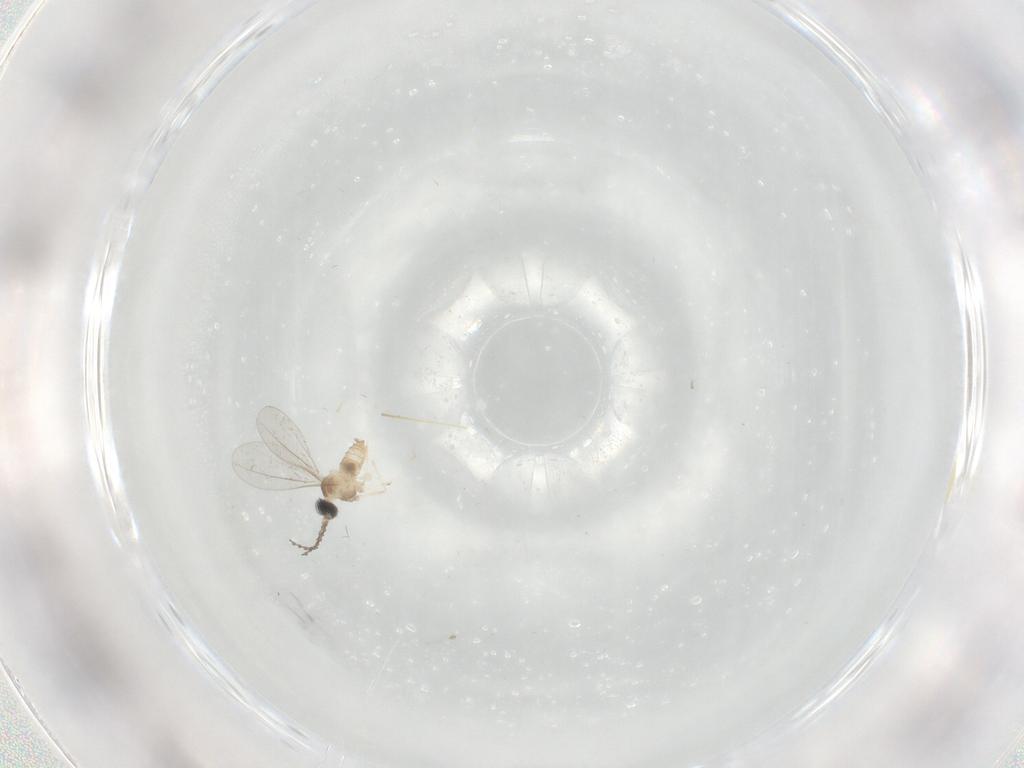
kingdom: Animalia
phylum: Arthropoda
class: Insecta
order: Diptera
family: Cecidomyiidae
